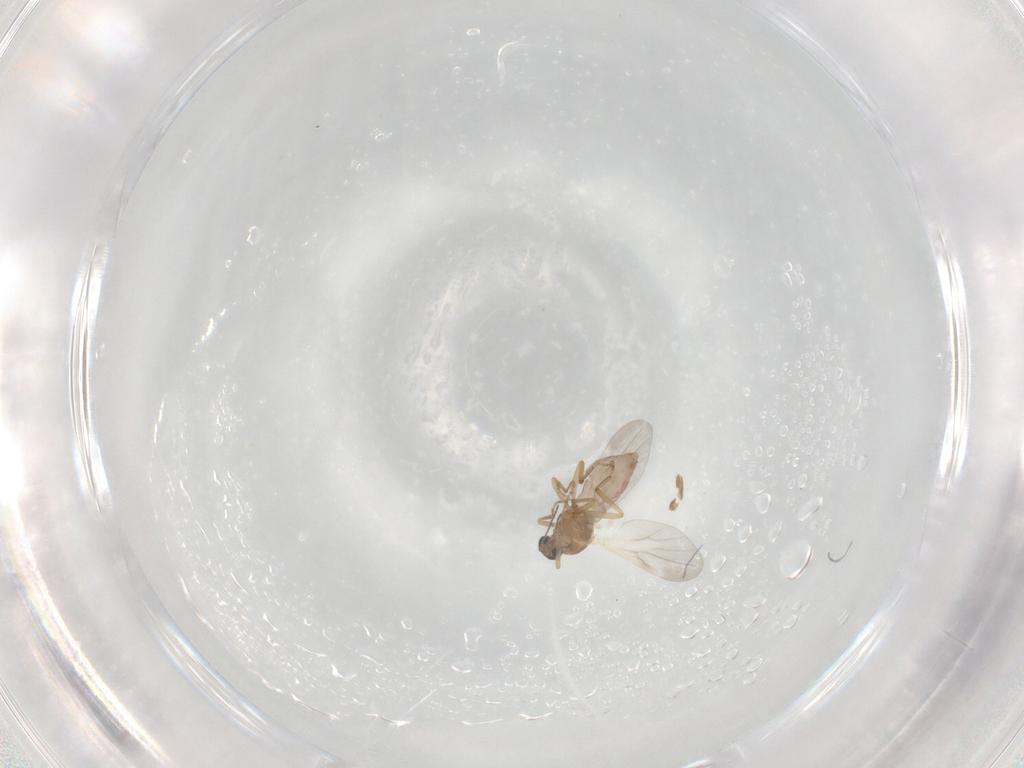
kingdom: Animalia
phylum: Arthropoda
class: Insecta
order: Diptera
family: Ceratopogonidae
